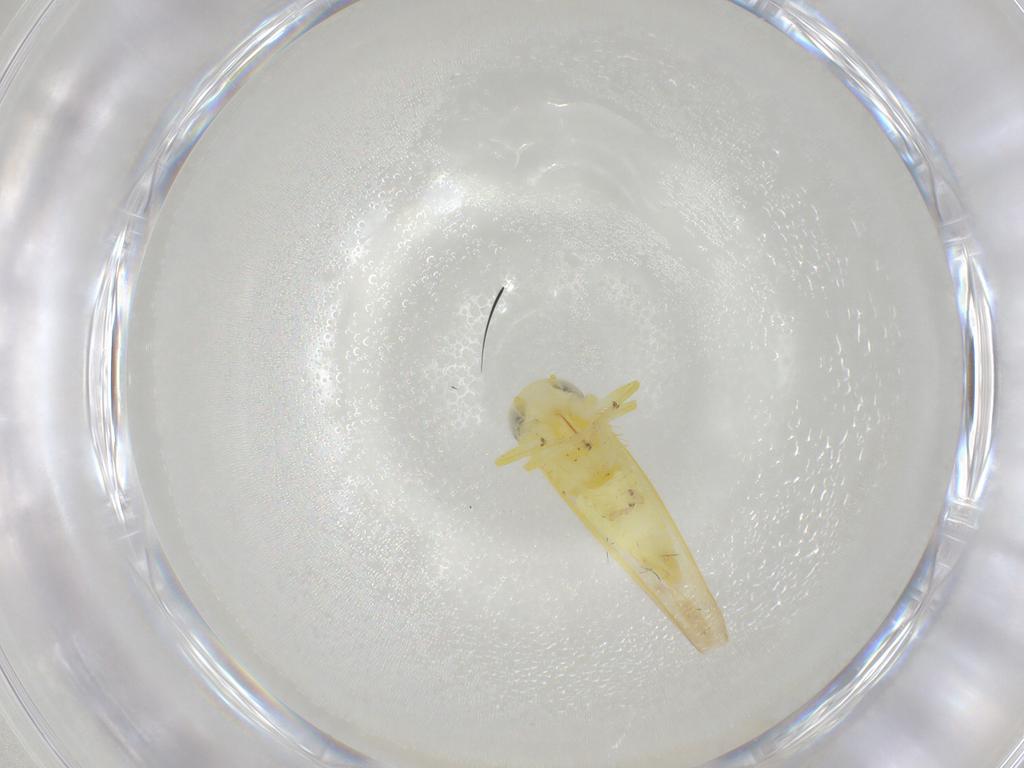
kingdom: Animalia
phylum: Arthropoda
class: Insecta
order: Hemiptera
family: Cicadellidae
